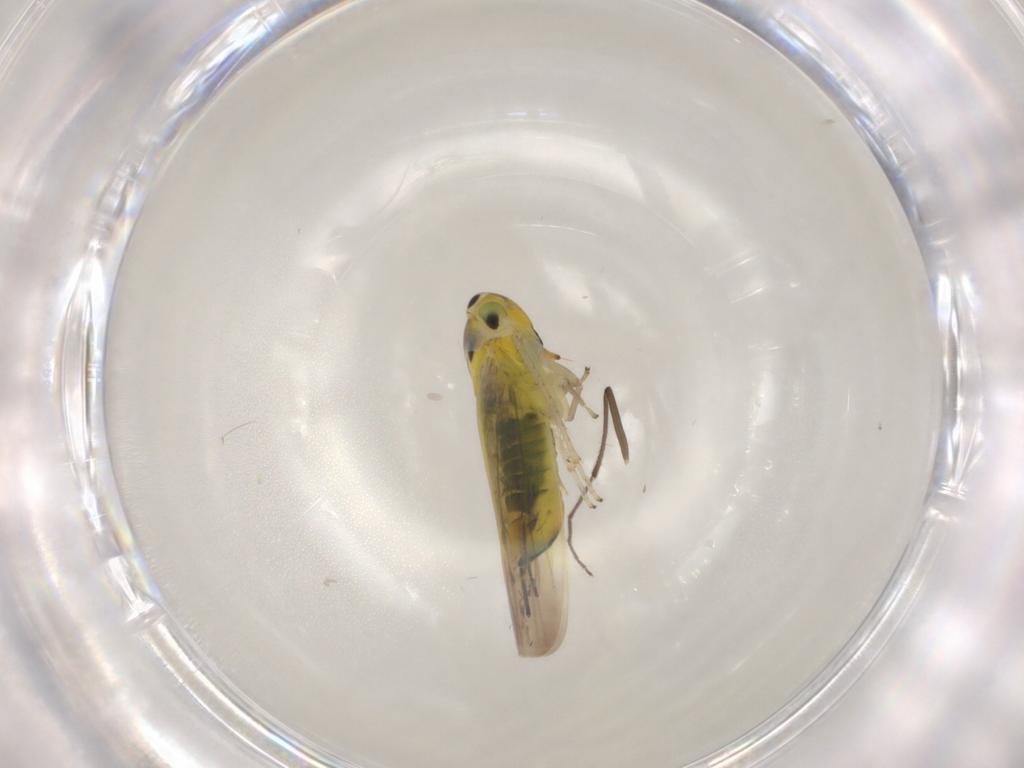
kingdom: Animalia
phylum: Arthropoda
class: Insecta
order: Hemiptera
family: Cicadellidae
